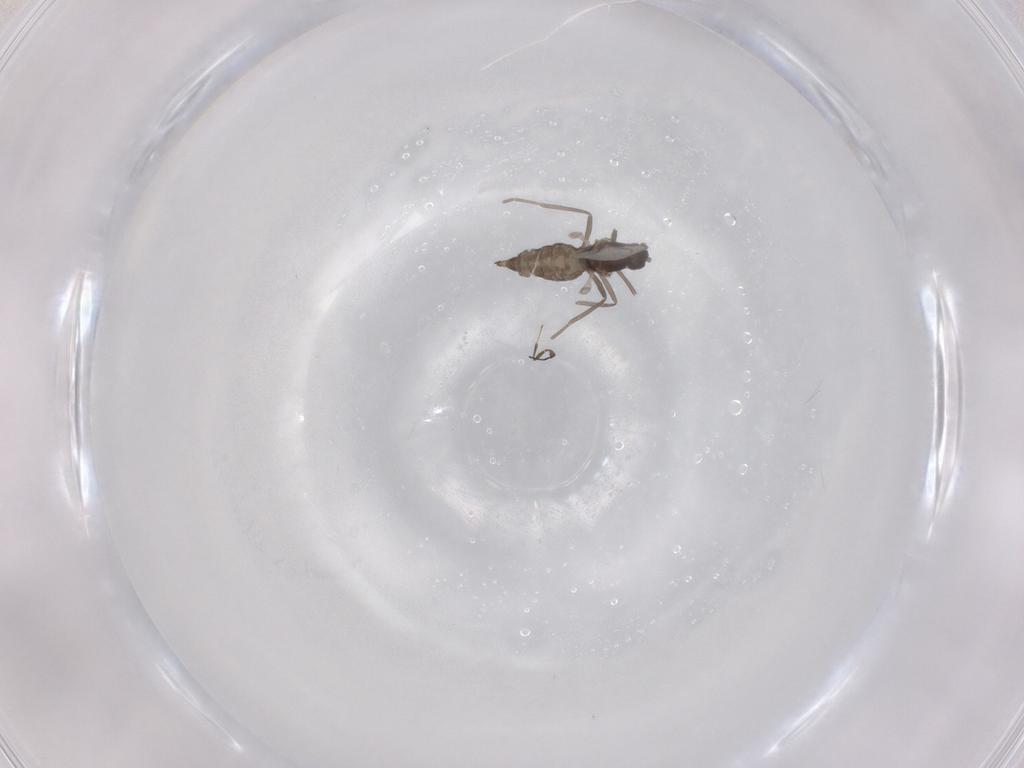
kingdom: Animalia
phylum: Arthropoda
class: Insecta
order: Diptera
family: Cecidomyiidae
